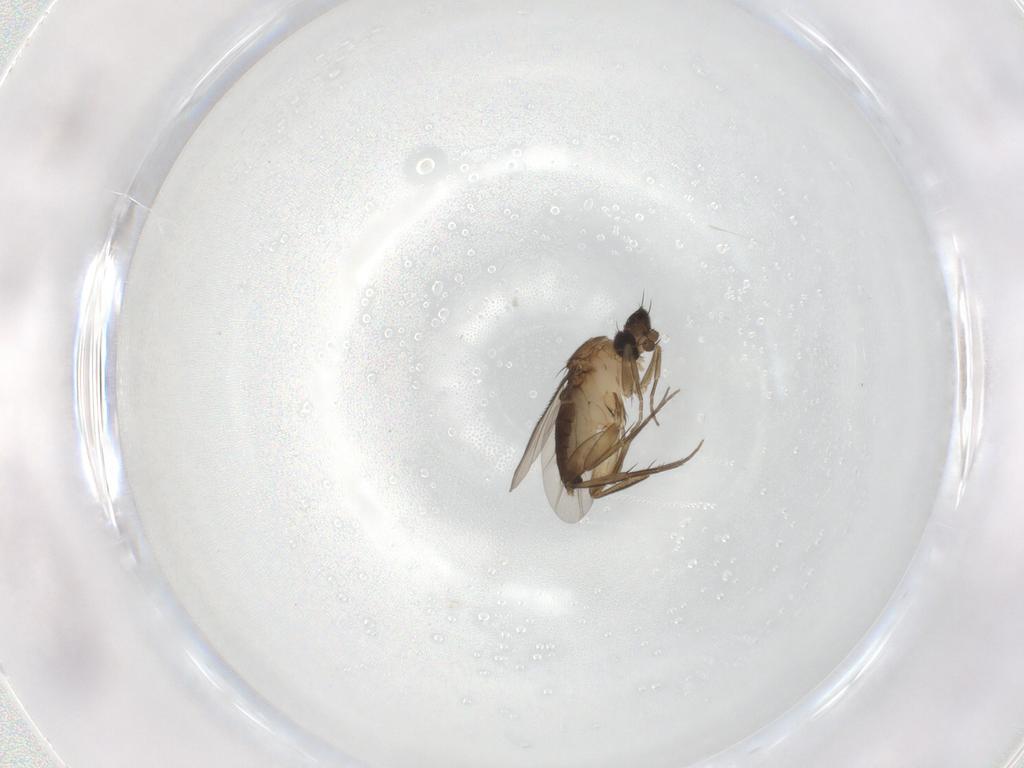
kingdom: Animalia
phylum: Arthropoda
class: Insecta
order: Diptera
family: Phoridae
